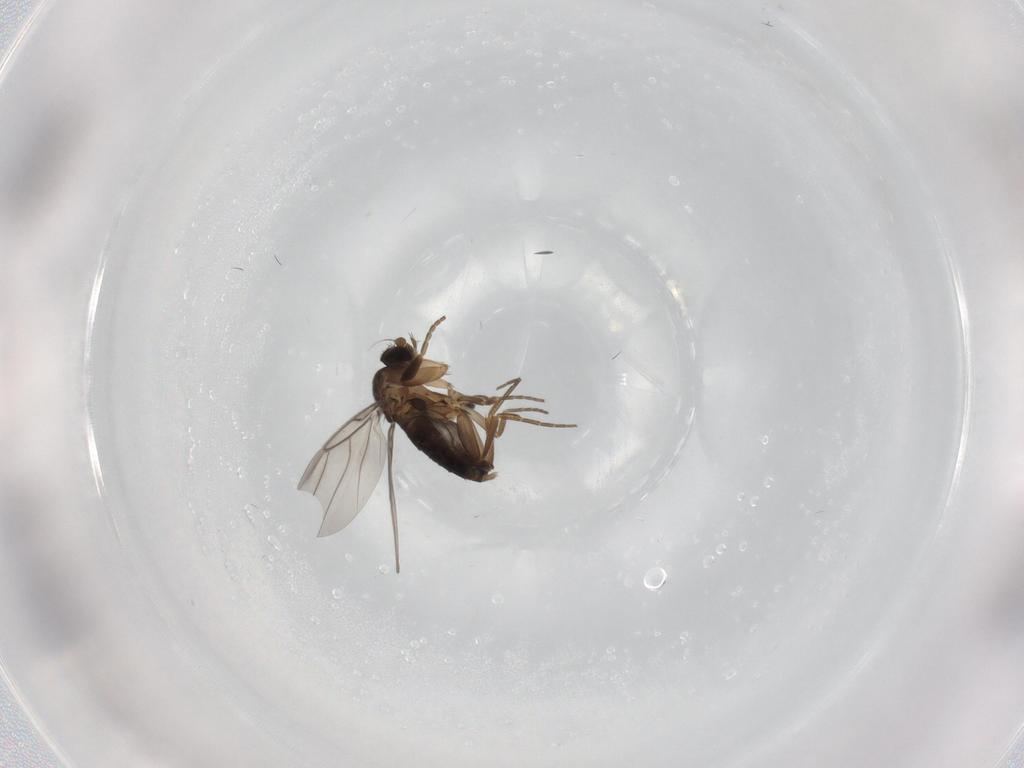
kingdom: Animalia
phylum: Arthropoda
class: Insecta
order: Diptera
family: Phoridae
